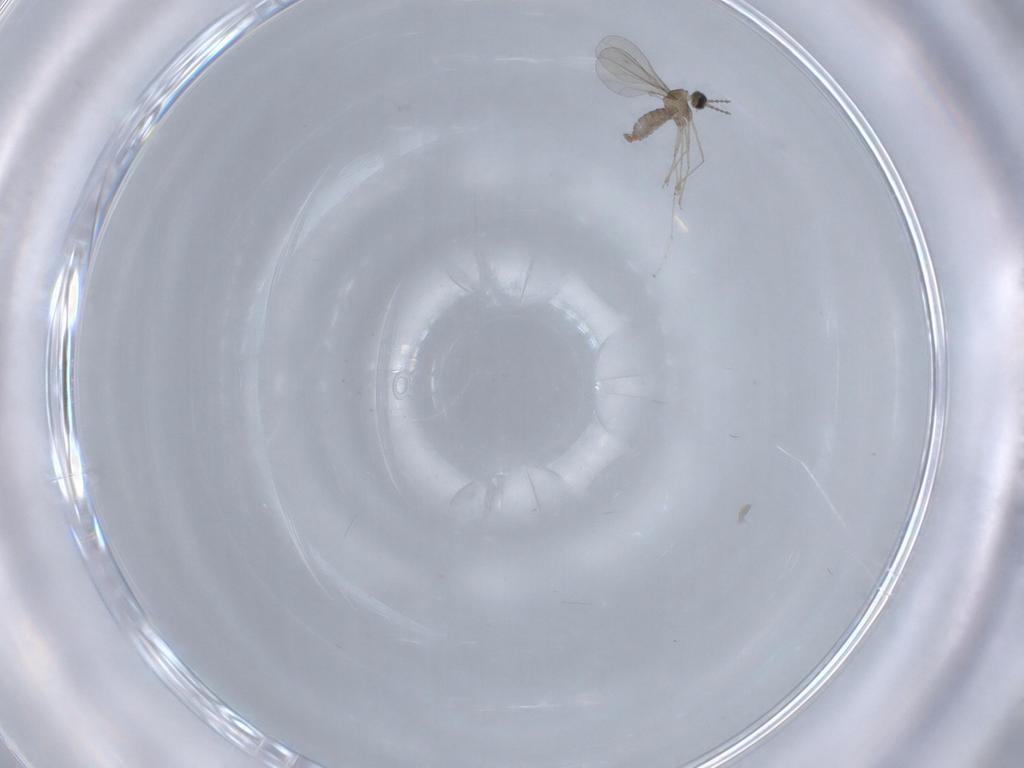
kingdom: Animalia
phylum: Arthropoda
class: Insecta
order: Diptera
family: Cecidomyiidae
